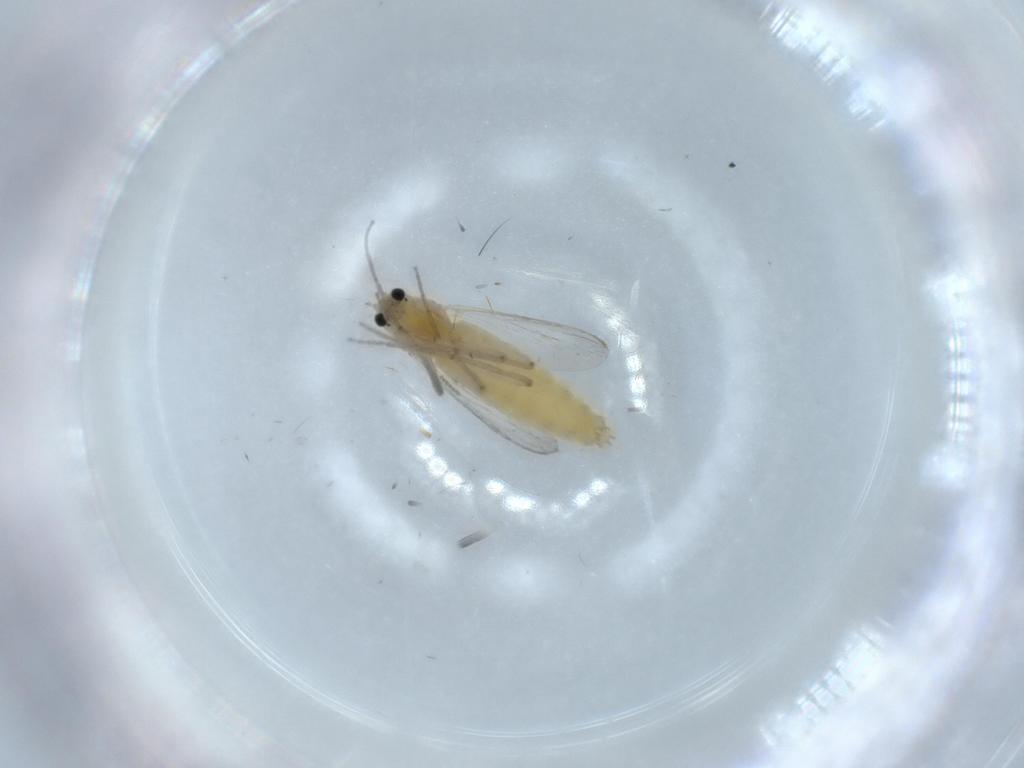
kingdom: Animalia
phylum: Arthropoda
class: Insecta
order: Diptera
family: Chironomidae
